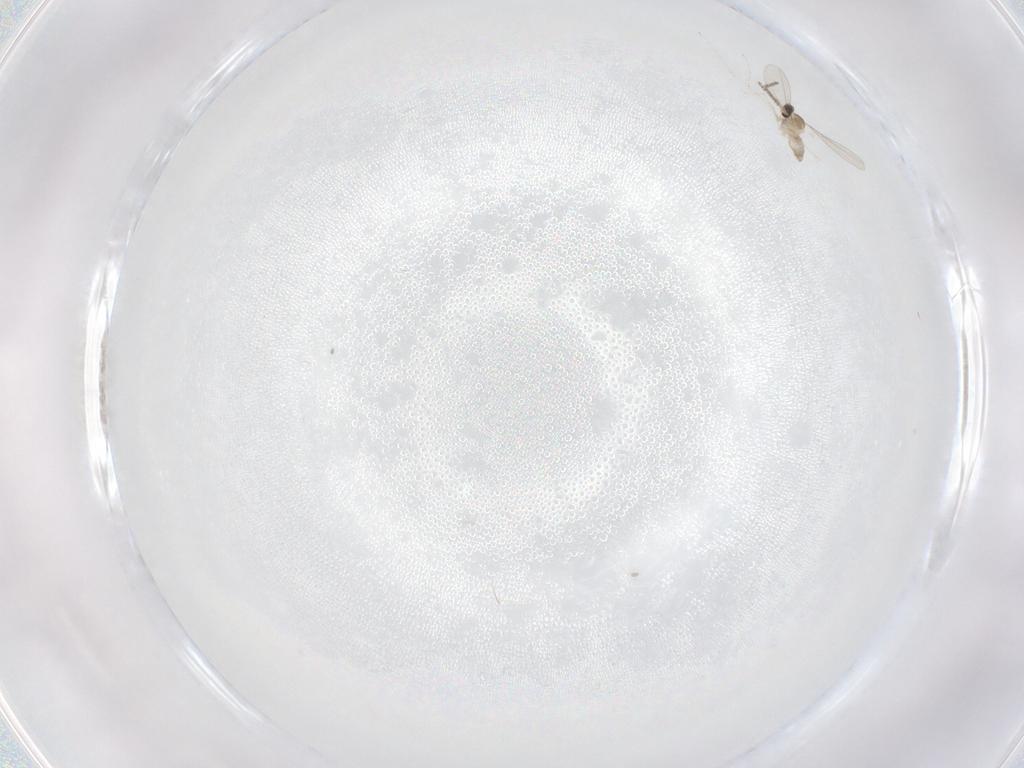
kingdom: Animalia
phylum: Arthropoda
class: Insecta
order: Diptera
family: Cecidomyiidae
